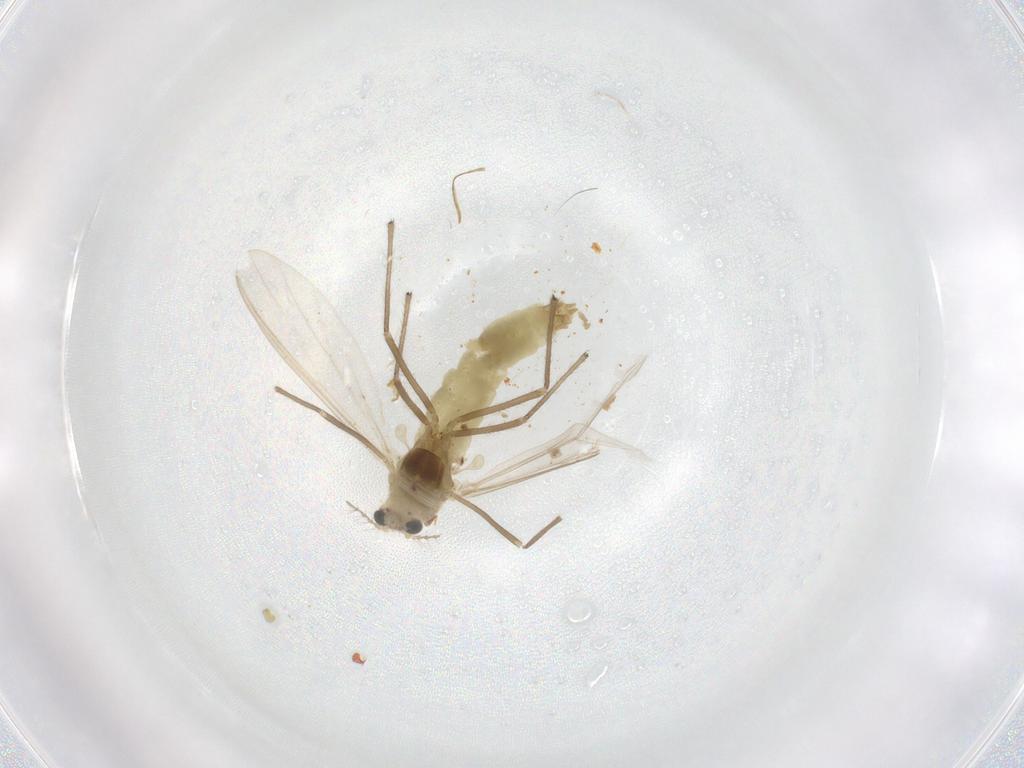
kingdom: Animalia
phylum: Arthropoda
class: Insecta
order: Diptera
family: Chironomidae
